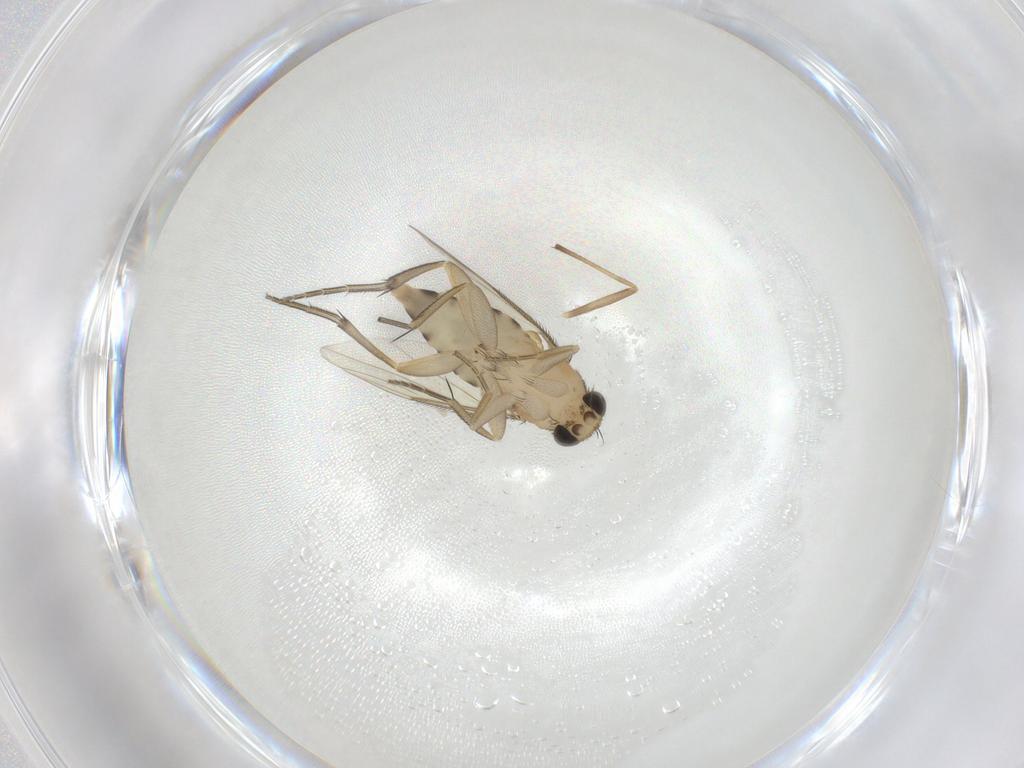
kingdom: Animalia
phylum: Arthropoda
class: Insecta
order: Diptera
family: Phoridae
